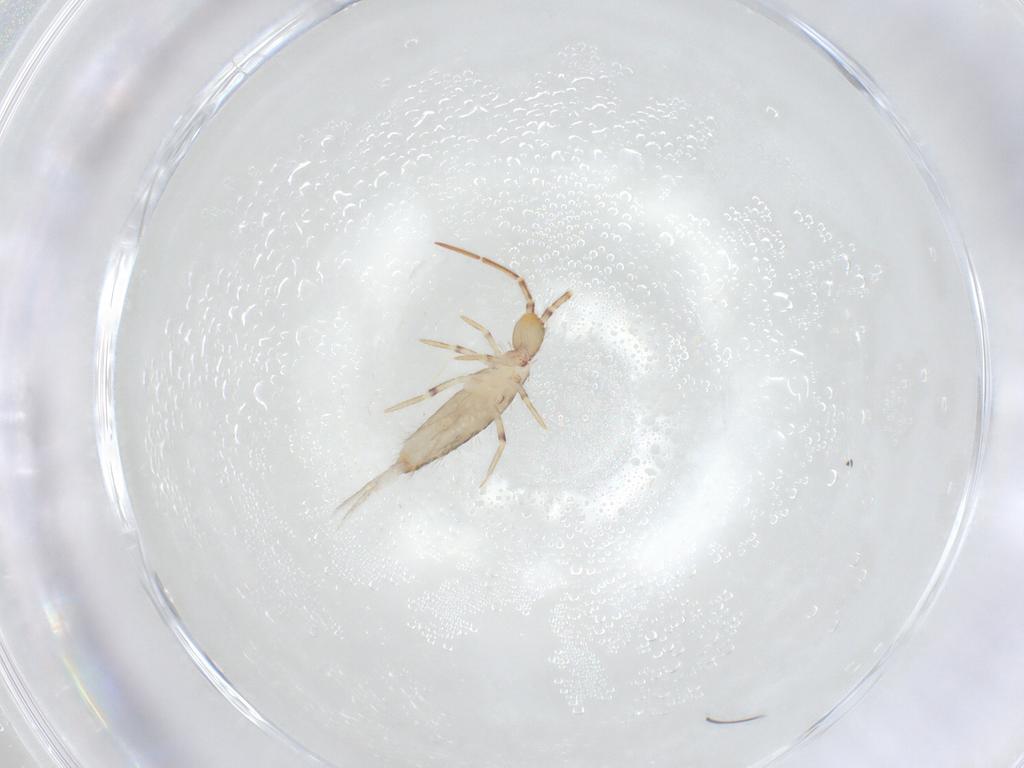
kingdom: Animalia
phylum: Arthropoda
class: Collembola
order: Entomobryomorpha
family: Entomobryidae
